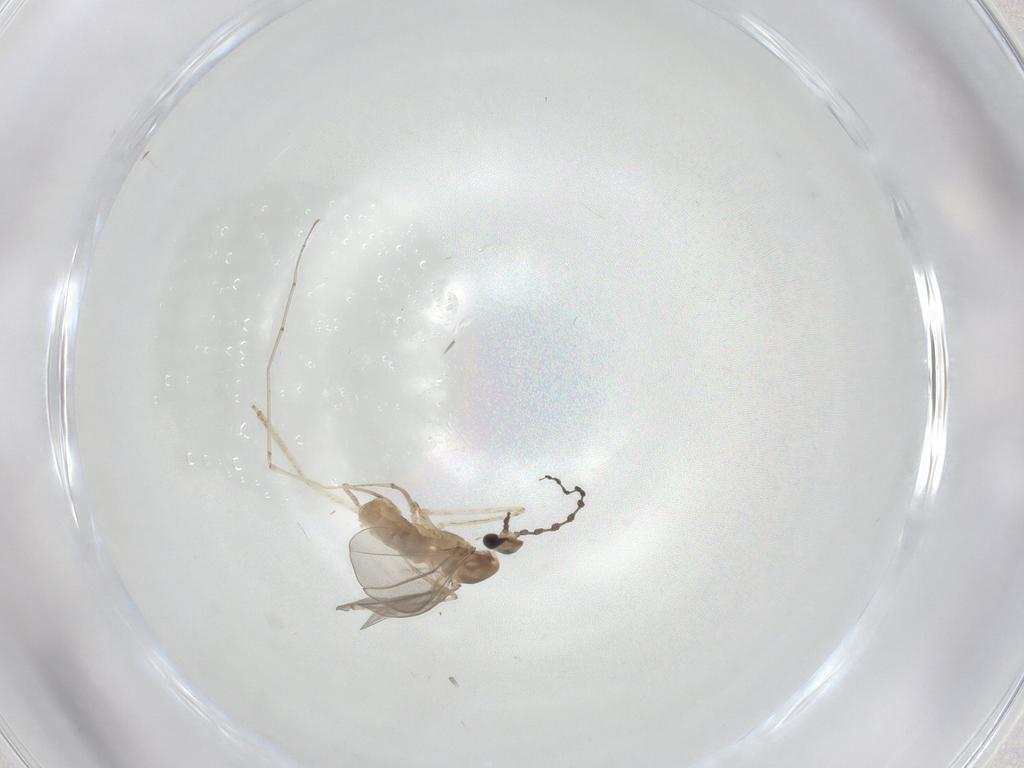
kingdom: Animalia
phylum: Arthropoda
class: Insecta
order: Diptera
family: Cecidomyiidae
